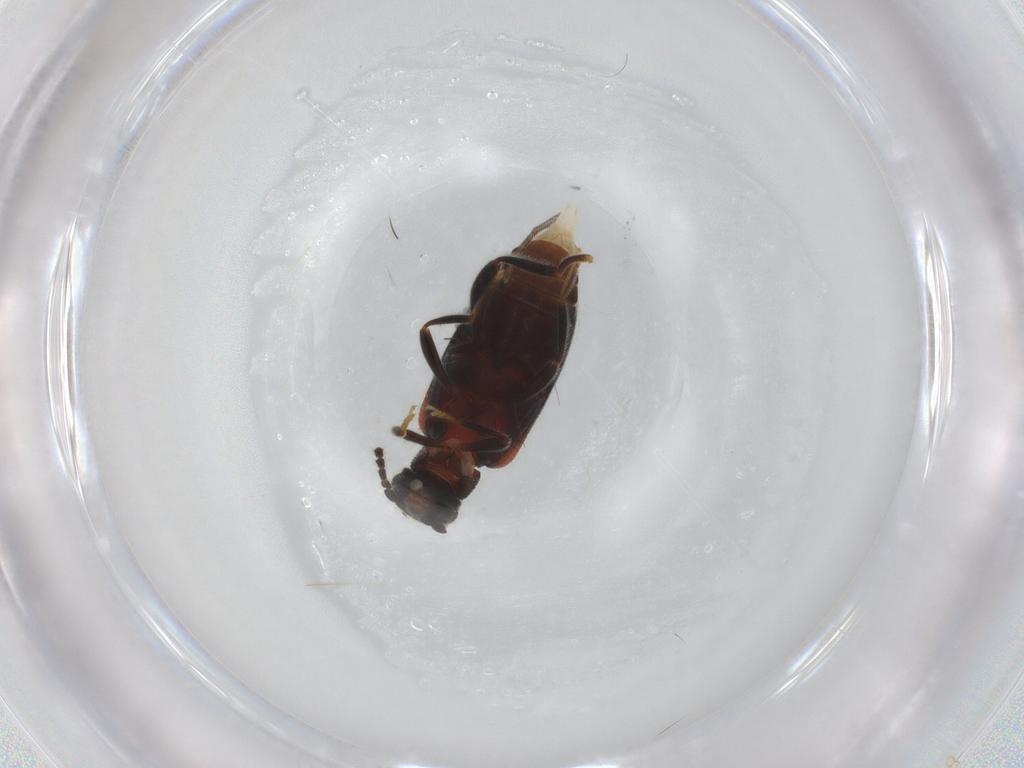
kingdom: Animalia
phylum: Arthropoda
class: Insecta
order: Coleoptera
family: Aderidae
